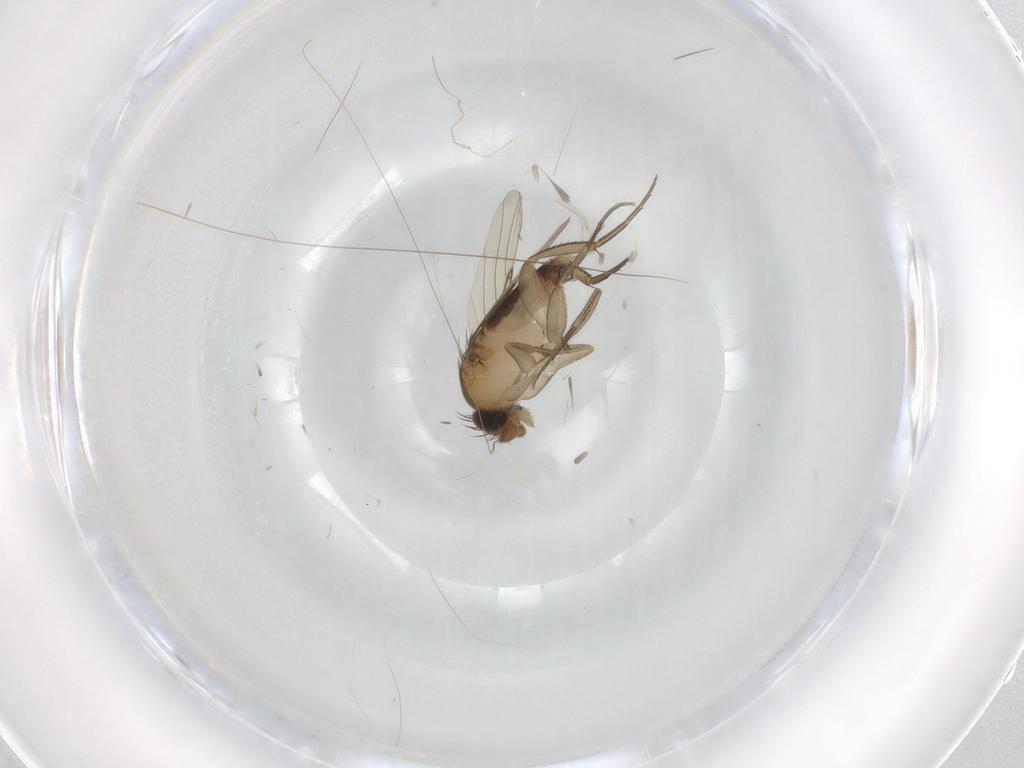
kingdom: Animalia
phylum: Arthropoda
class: Insecta
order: Diptera
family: Phoridae
